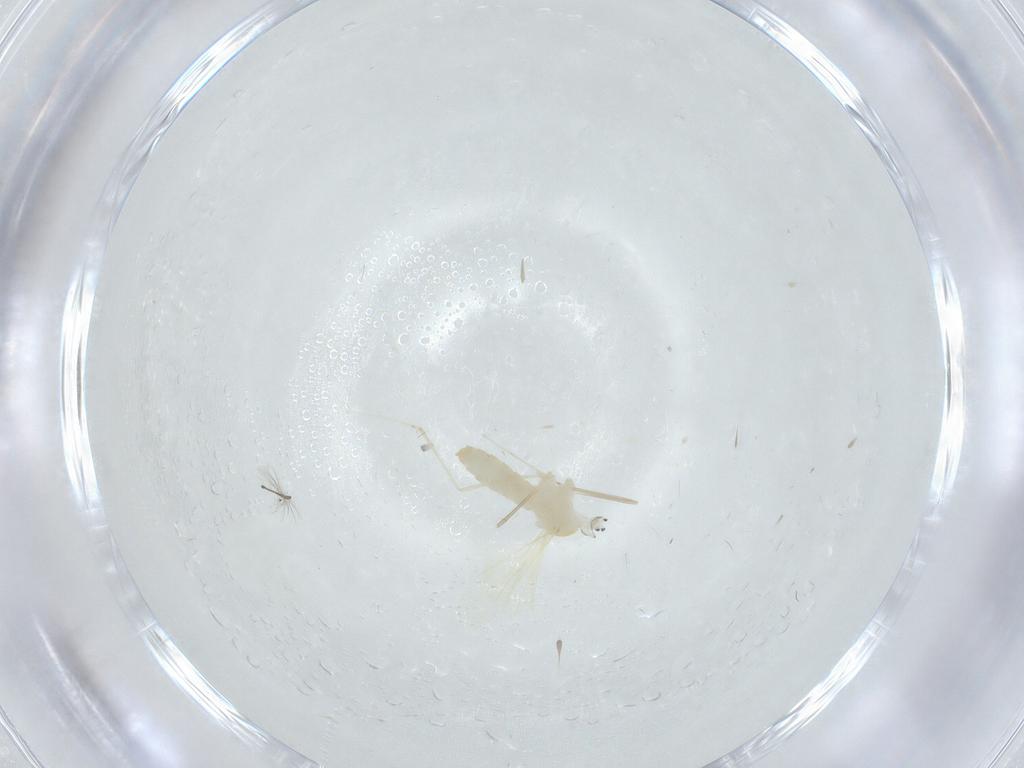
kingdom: Animalia
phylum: Arthropoda
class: Insecta
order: Diptera
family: Cecidomyiidae
